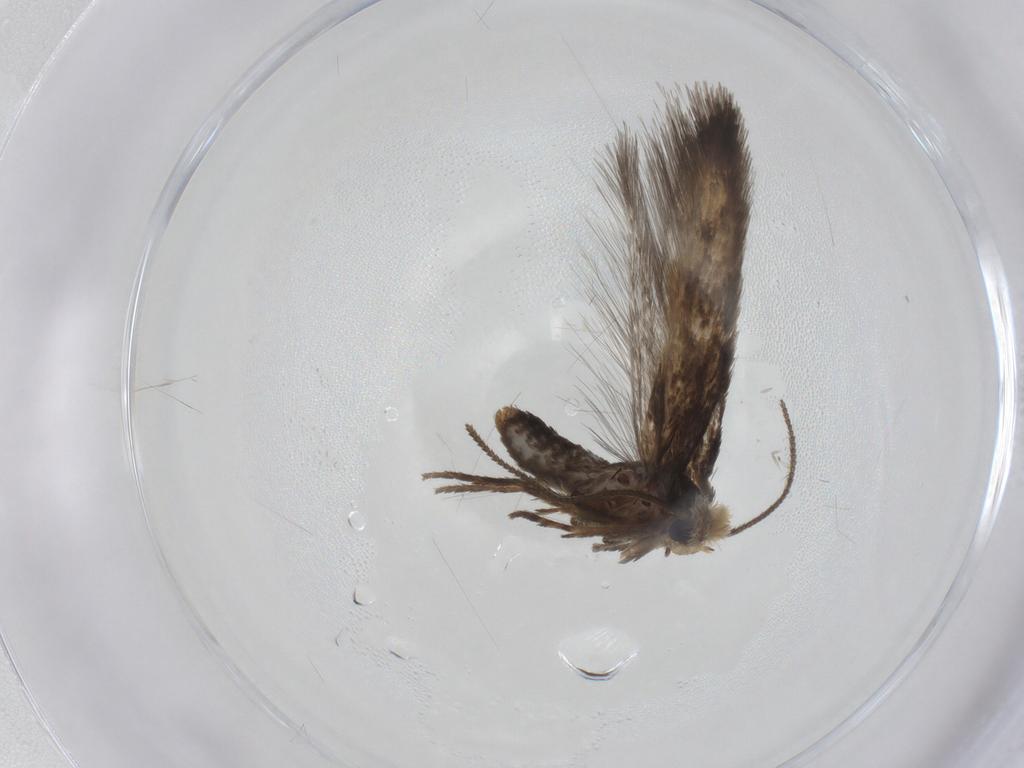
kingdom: Animalia
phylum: Arthropoda
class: Insecta
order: Lepidoptera
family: Nepticulidae
